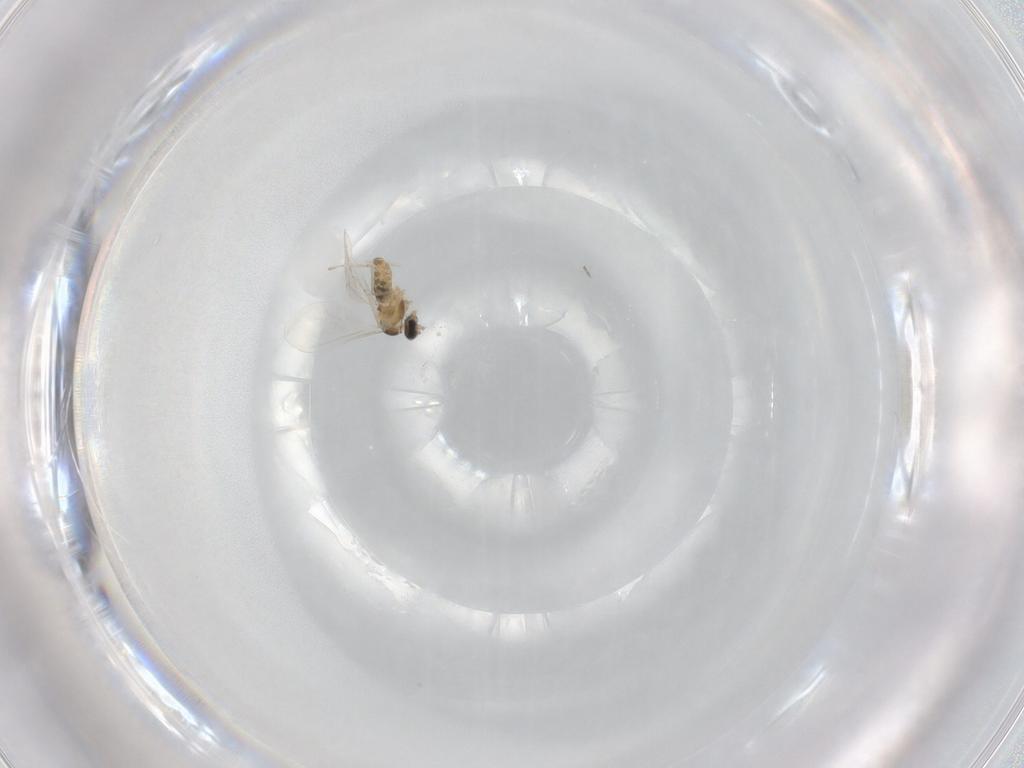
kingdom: Animalia
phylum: Arthropoda
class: Insecta
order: Diptera
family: Cecidomyiidae
